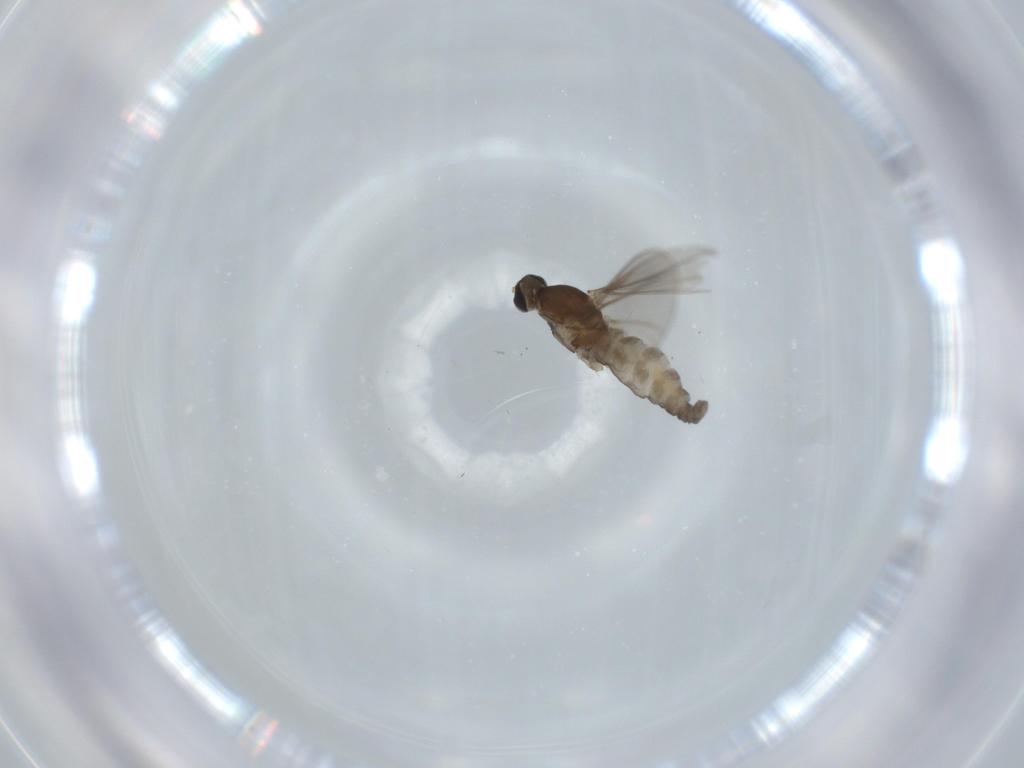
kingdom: Animalia
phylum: Arthropoda
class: Insecta
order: Diptera
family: Cecidomyiidae
